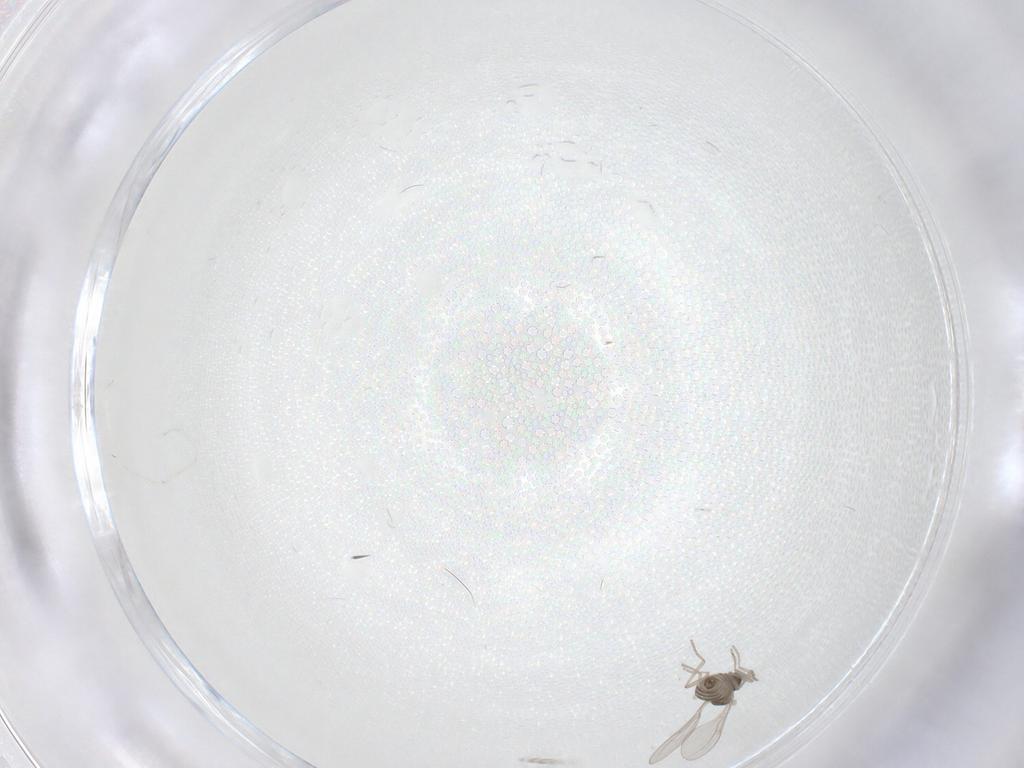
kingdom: Animalia
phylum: Arthropoda
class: Insecta
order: Diptera
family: Cecidomyiidae
